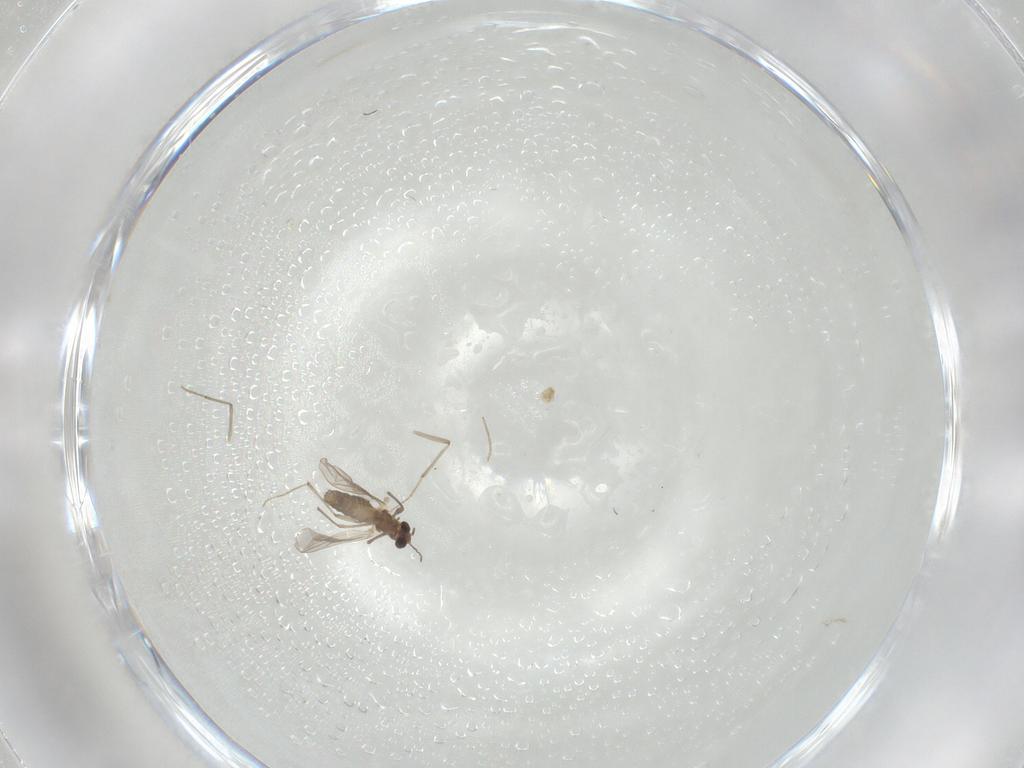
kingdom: Animalia
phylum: Arthropoda
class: Insecta
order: Diptera
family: Chironomidae
